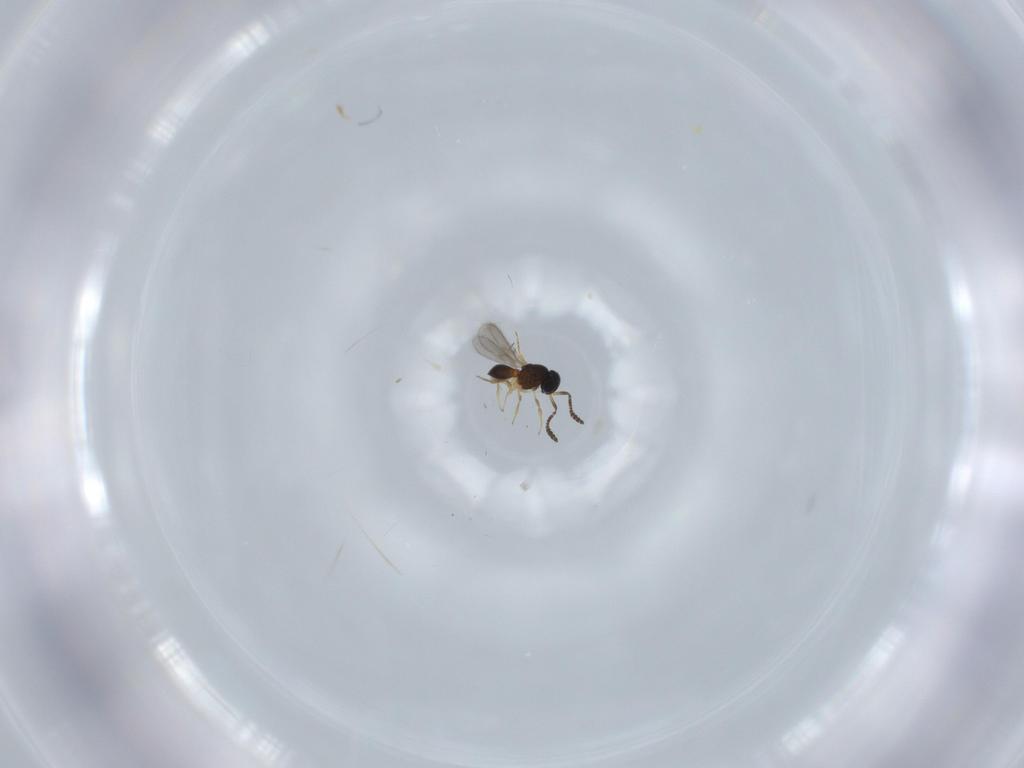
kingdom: Animalia
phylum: Arthropoda
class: Insecta
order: Hymenoptera
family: Scelionidae
